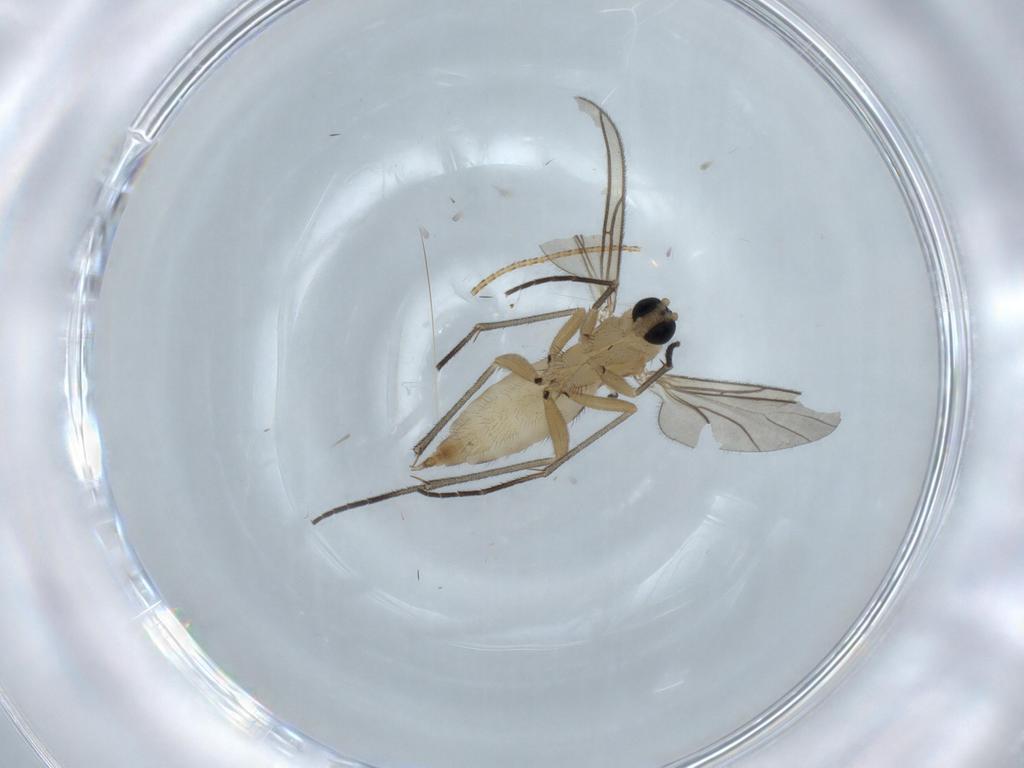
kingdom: Animalia
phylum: Arthropoda
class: Insecta
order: Diptera
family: Sciaridae
